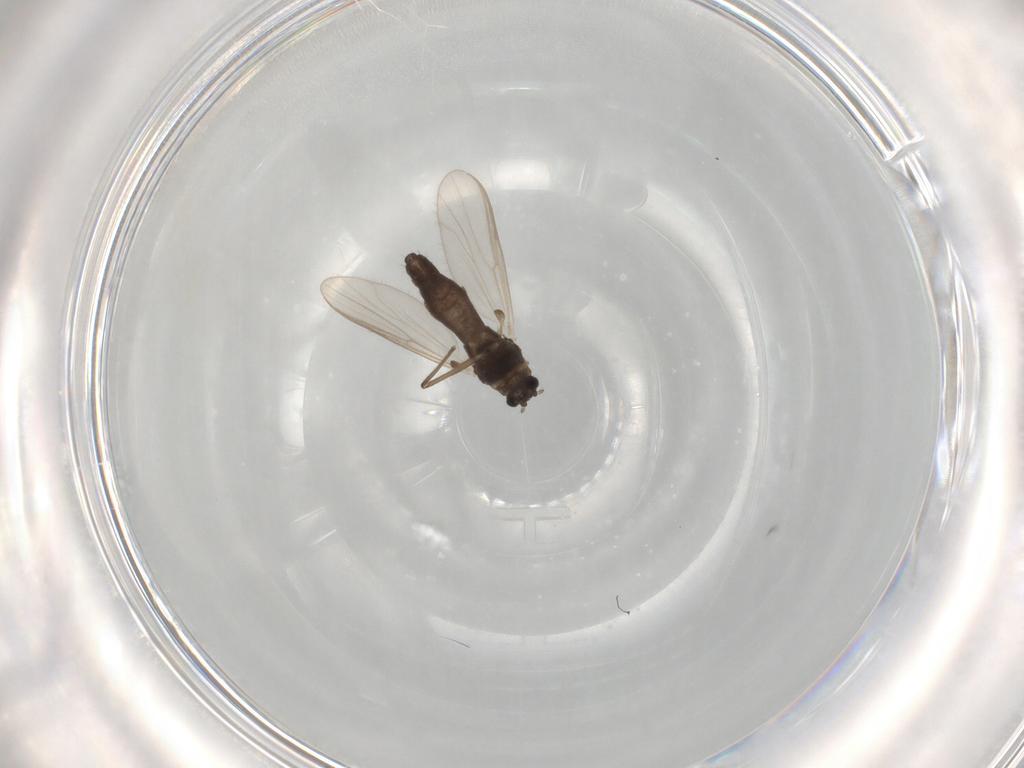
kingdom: Animalia
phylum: Arthropoda
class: Insecta
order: Diptera
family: Chironomidae
